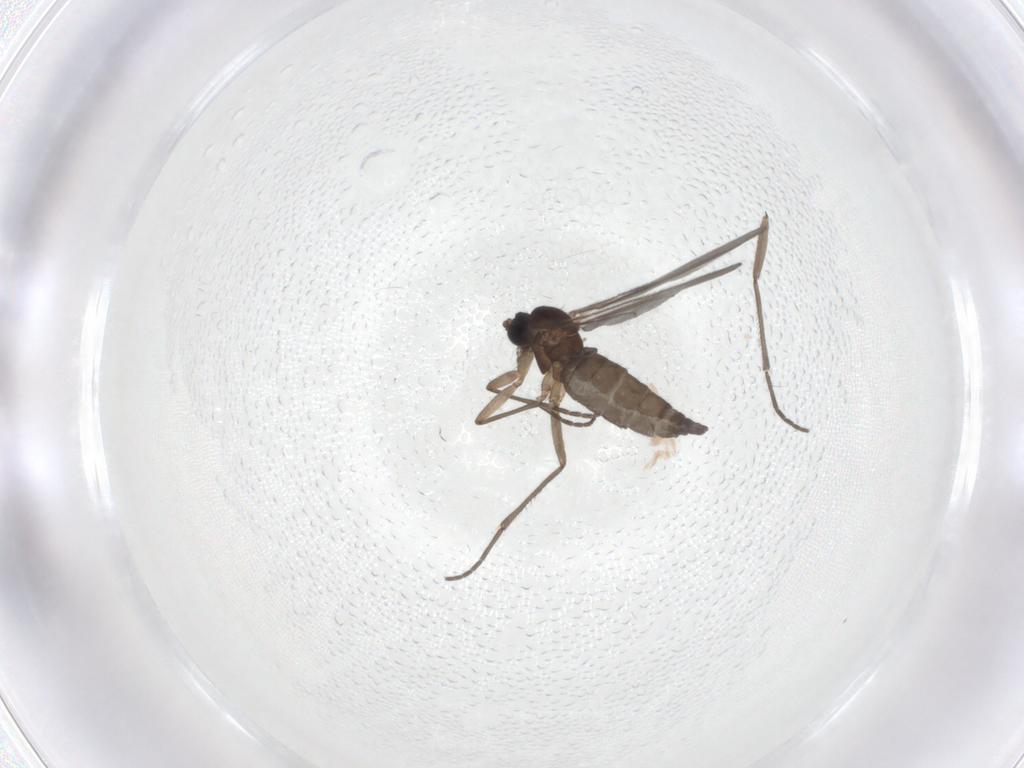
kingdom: Animalia
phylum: Arthropoda
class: Insecta
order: Diptera
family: Sciaridae
